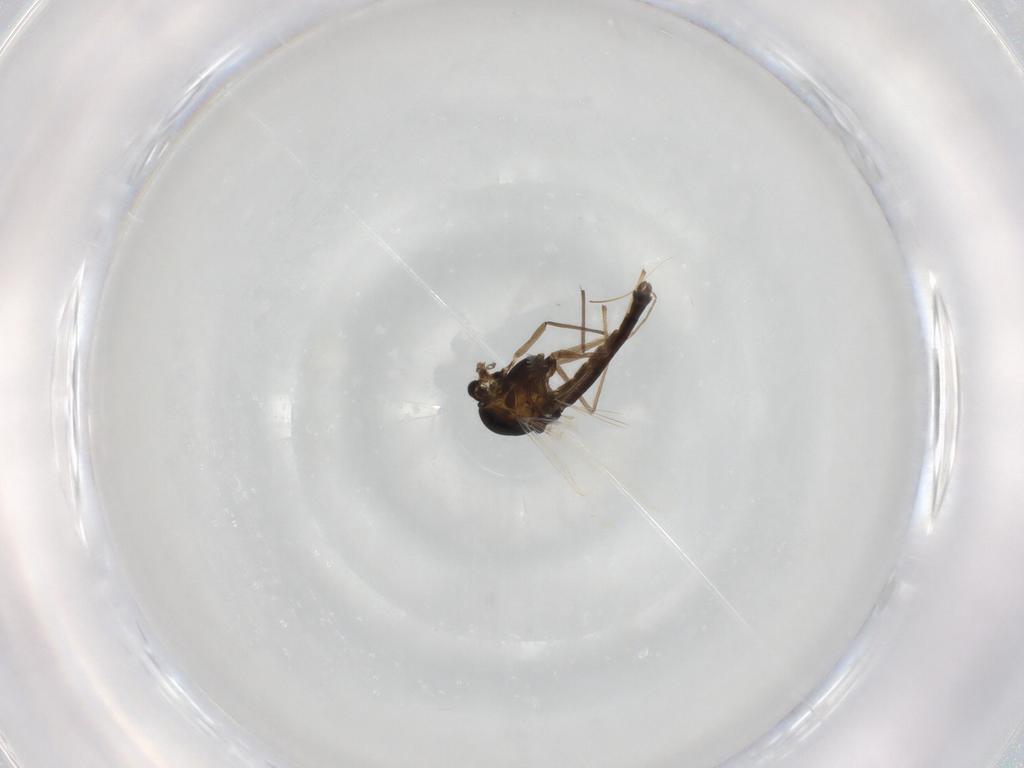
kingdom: Animalia
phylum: Arthropoda
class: Insecta
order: Diptera
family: Chironomidae
